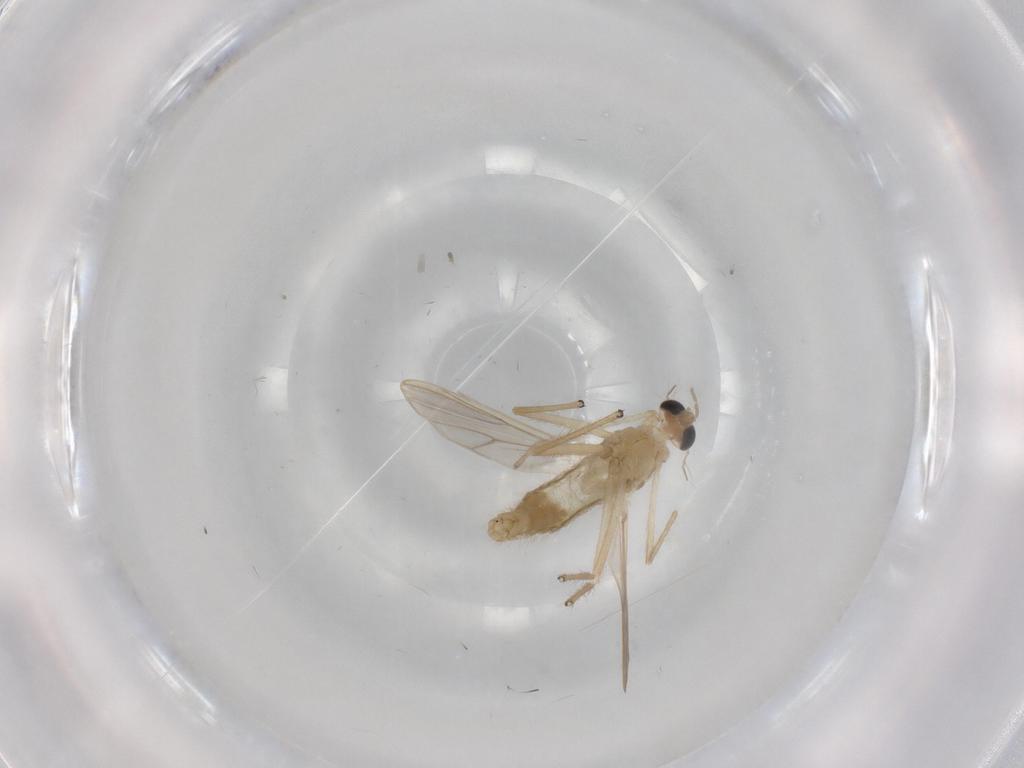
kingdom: Animalia
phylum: Arthropoda
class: Insecta
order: Diptera
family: Chironomidae
